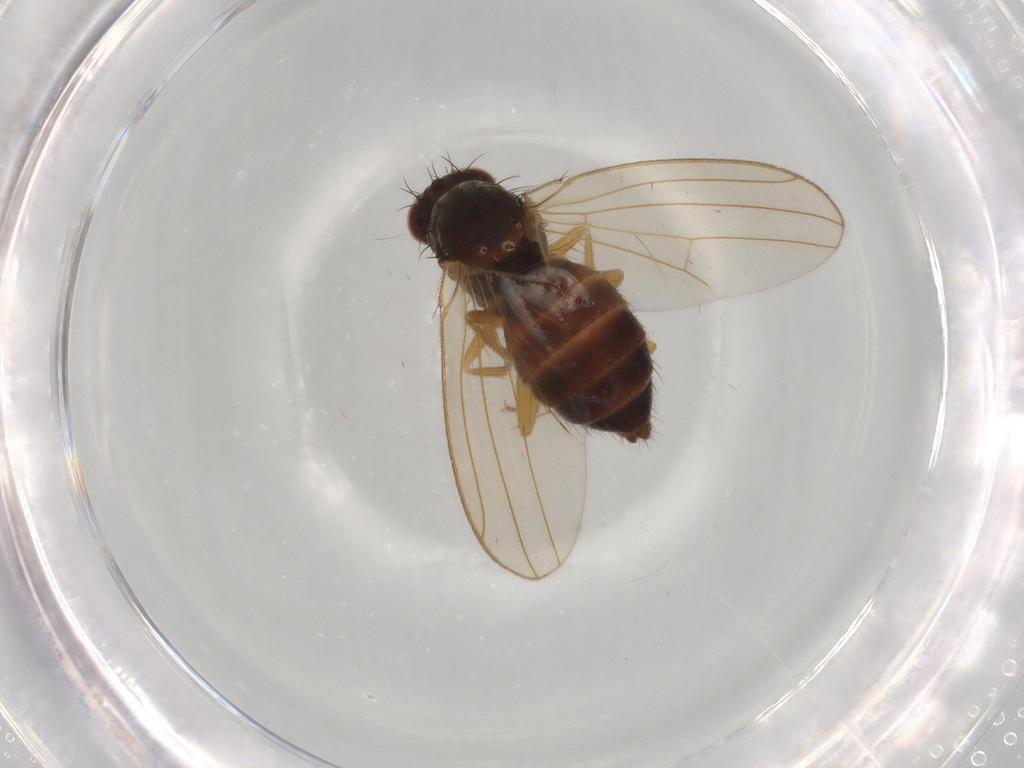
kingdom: Animalia
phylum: Arthropoda
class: Insecta
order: Diptera
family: Drosophilidae
